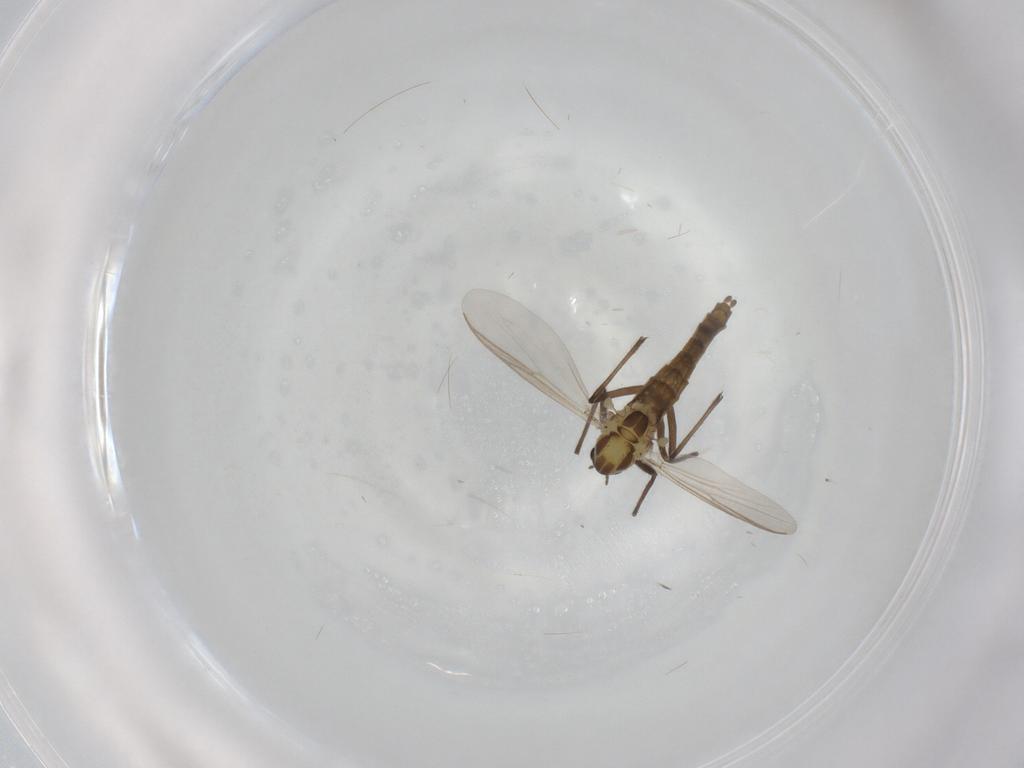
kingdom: Animalia
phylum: Arthropoda
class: Insecta
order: Diptera
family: Chironomidae
